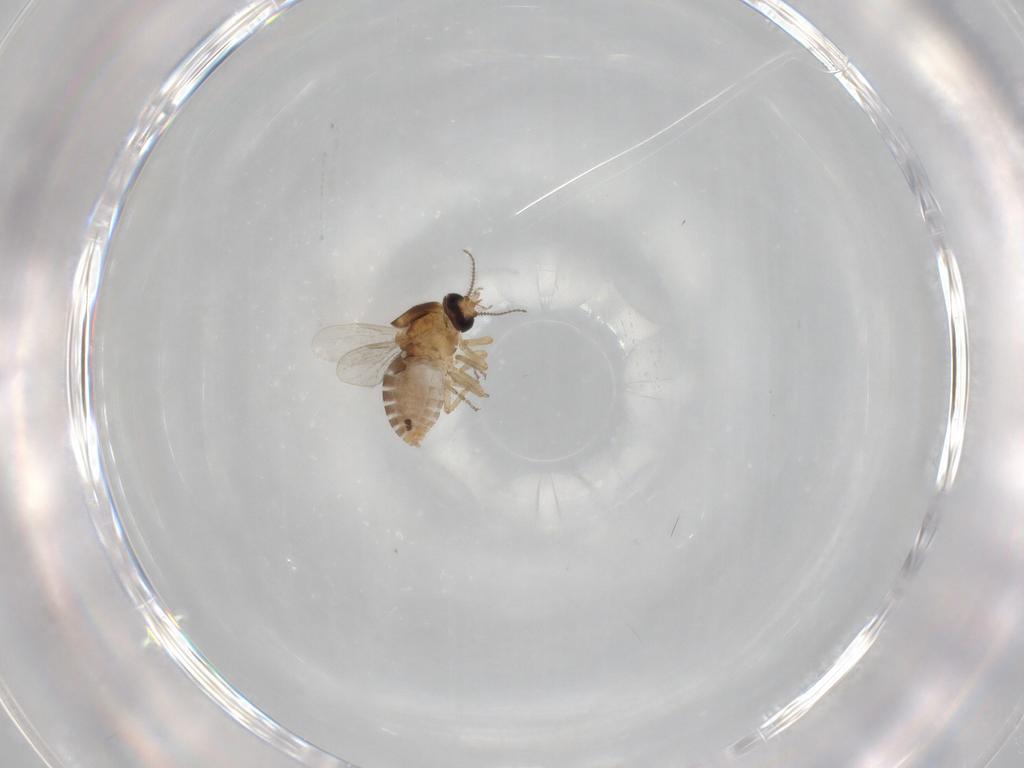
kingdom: Animalia
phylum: Arthropoda
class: Insecta
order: Diptera
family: Ceratopogonidae
